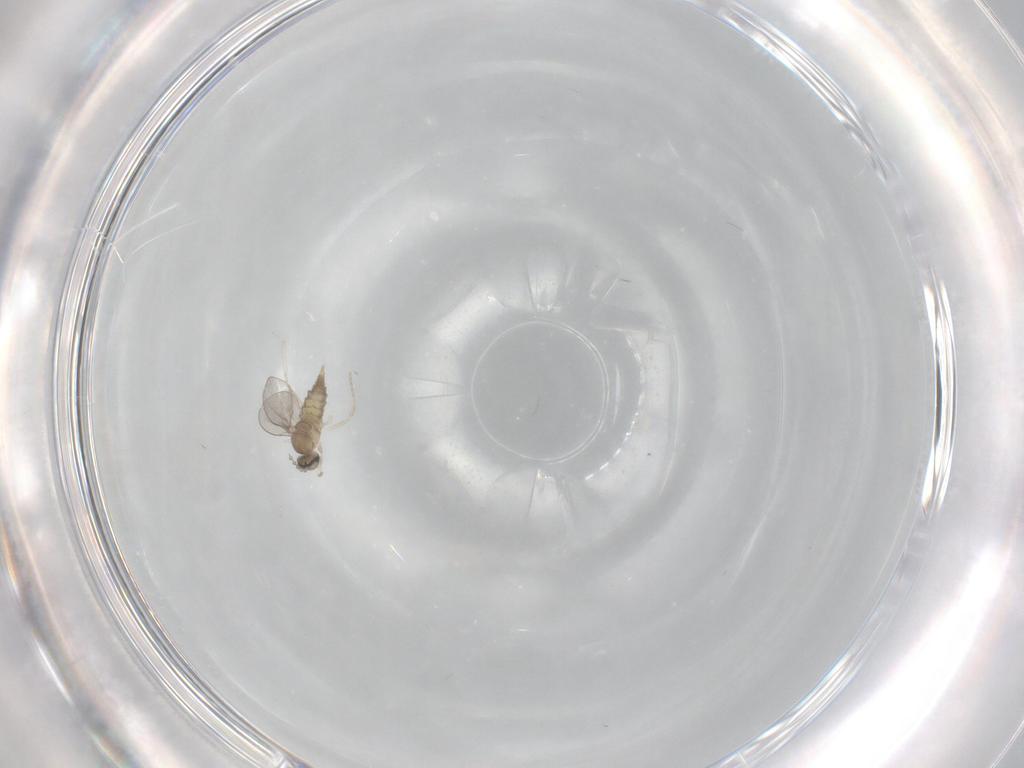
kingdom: Animalia
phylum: Arthropoda
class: Insecta
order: Diptera
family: Cecidomyiidae
